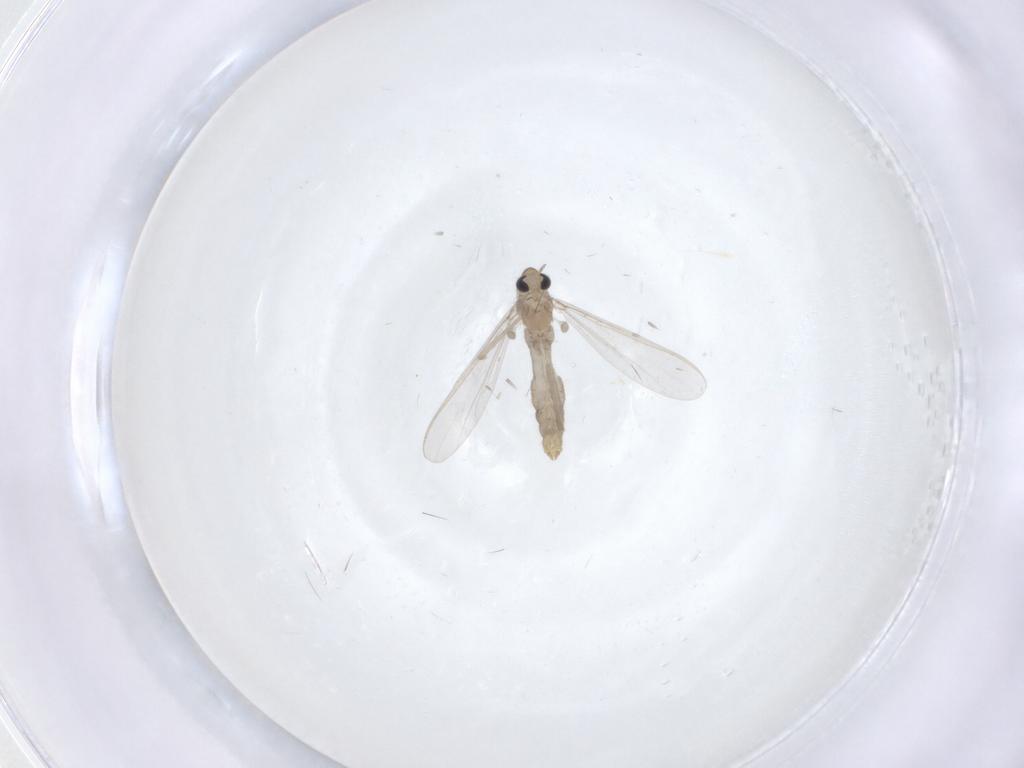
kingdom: Animalia
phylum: Arthropoda
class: Insecta
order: Diptera
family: Chironomidae
